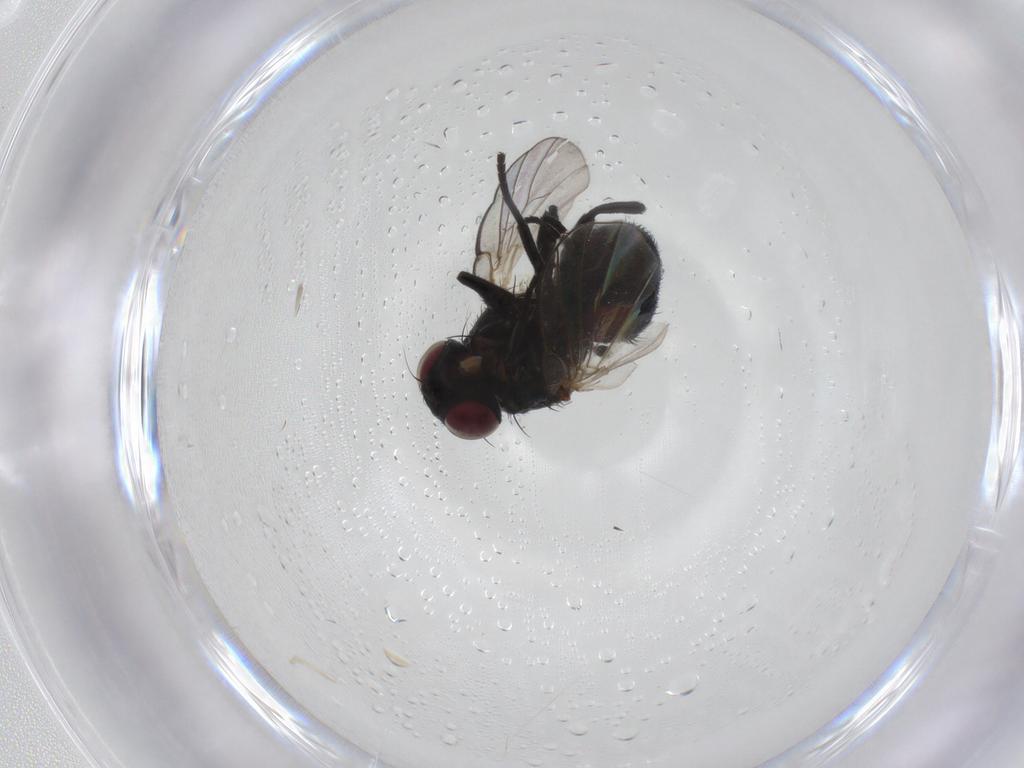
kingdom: Animalia
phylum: Arthropoda
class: Insecta
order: Diptera
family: Agromyzidae
